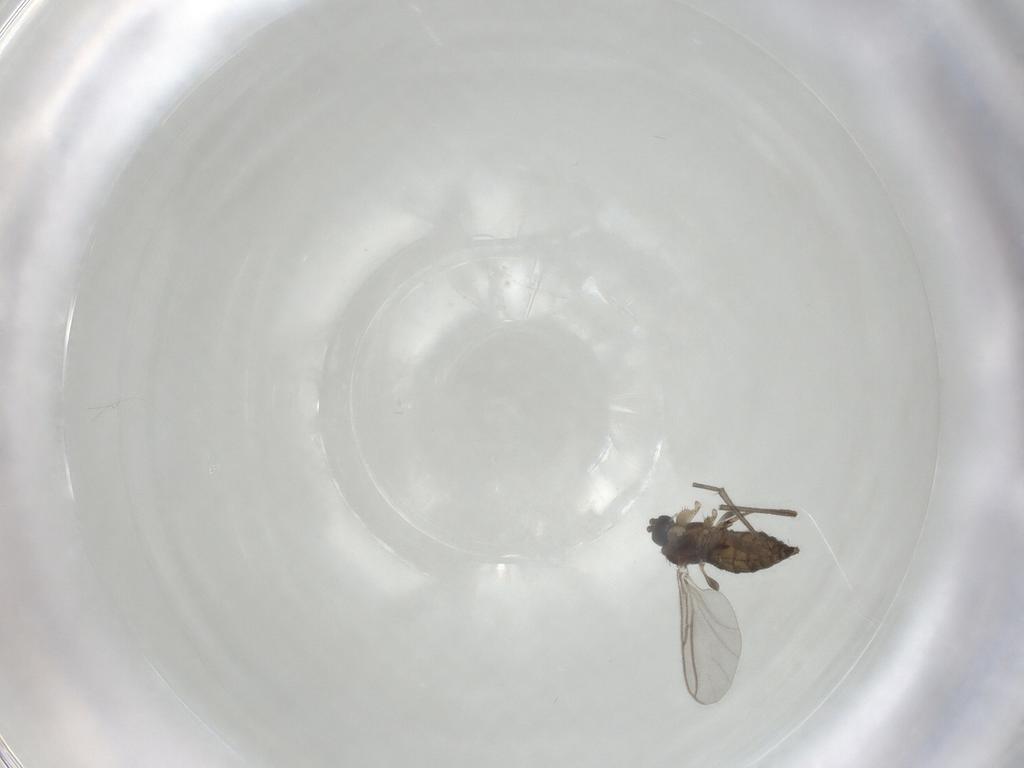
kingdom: Animalia
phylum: Arthropoda
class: Insecta
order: Diptera
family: Sciaridae
